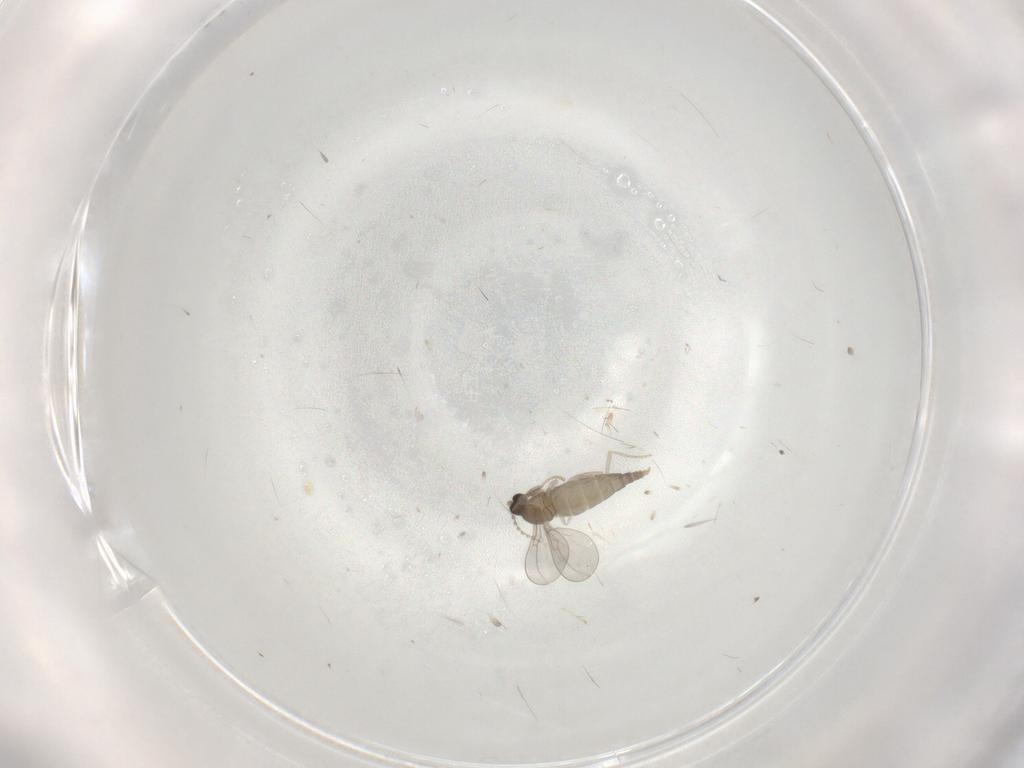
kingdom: Animalia
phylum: Arthropoda
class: Insecta
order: Diptera
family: Cecidomyiidae
